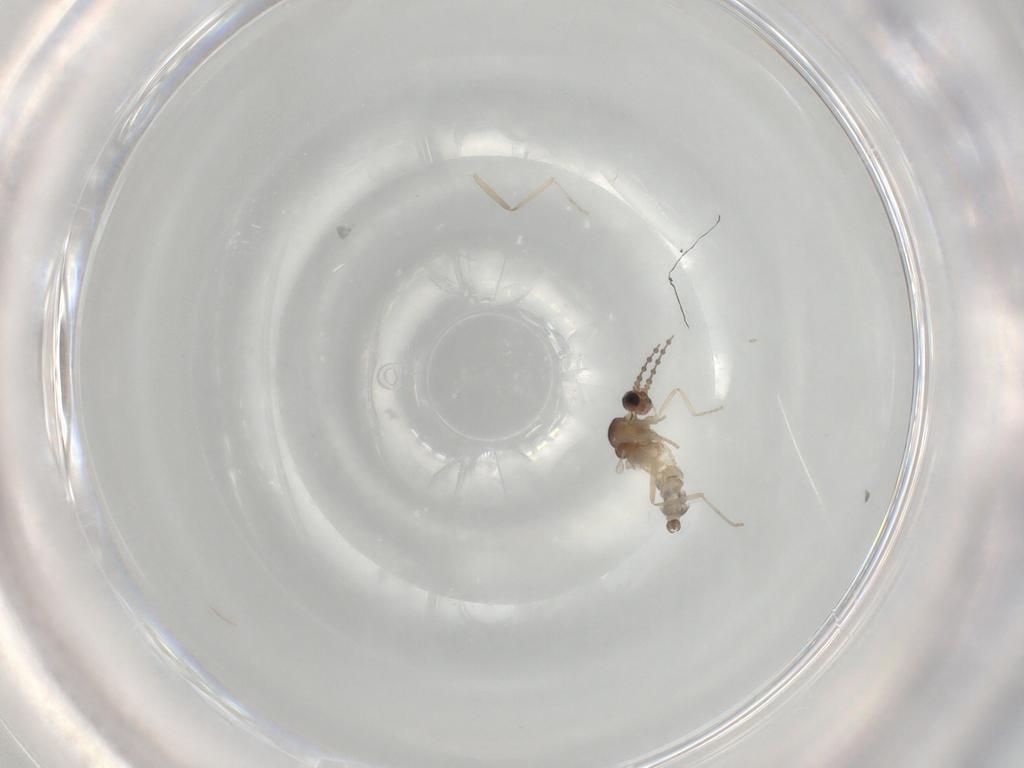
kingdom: Animalia
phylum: Arthropoda
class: Insecta
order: Diptera
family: Cecidomyiidae
